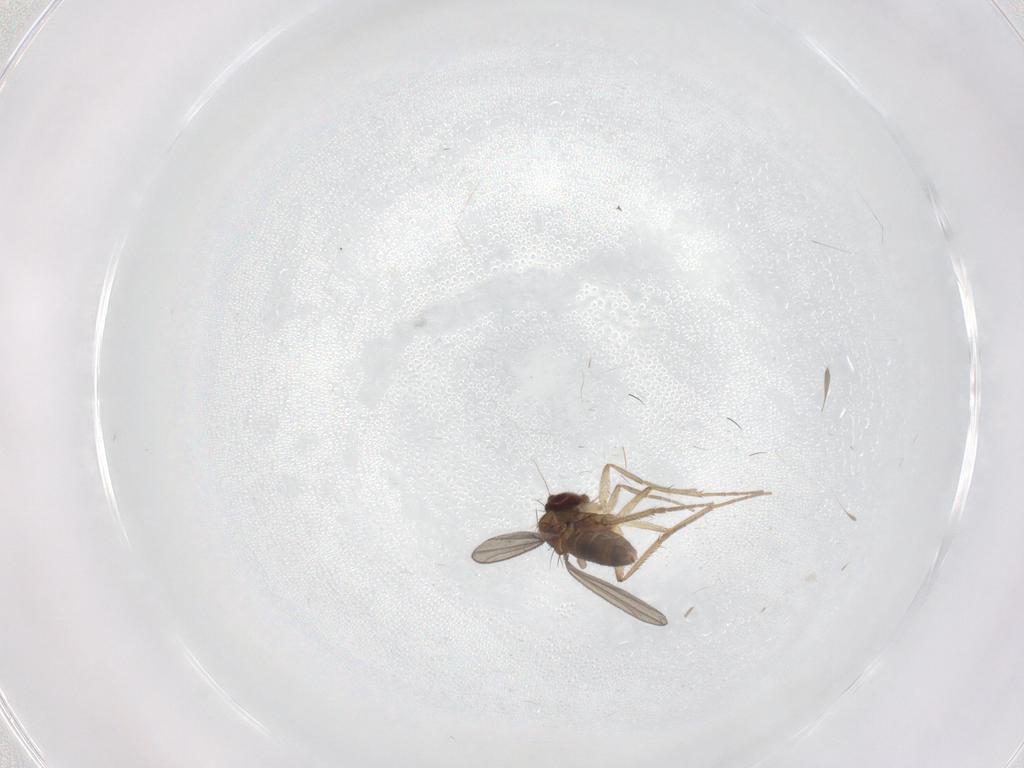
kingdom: Animalia
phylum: Arthropoda
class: Insecta
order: Diptera
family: Dolichopodidae
